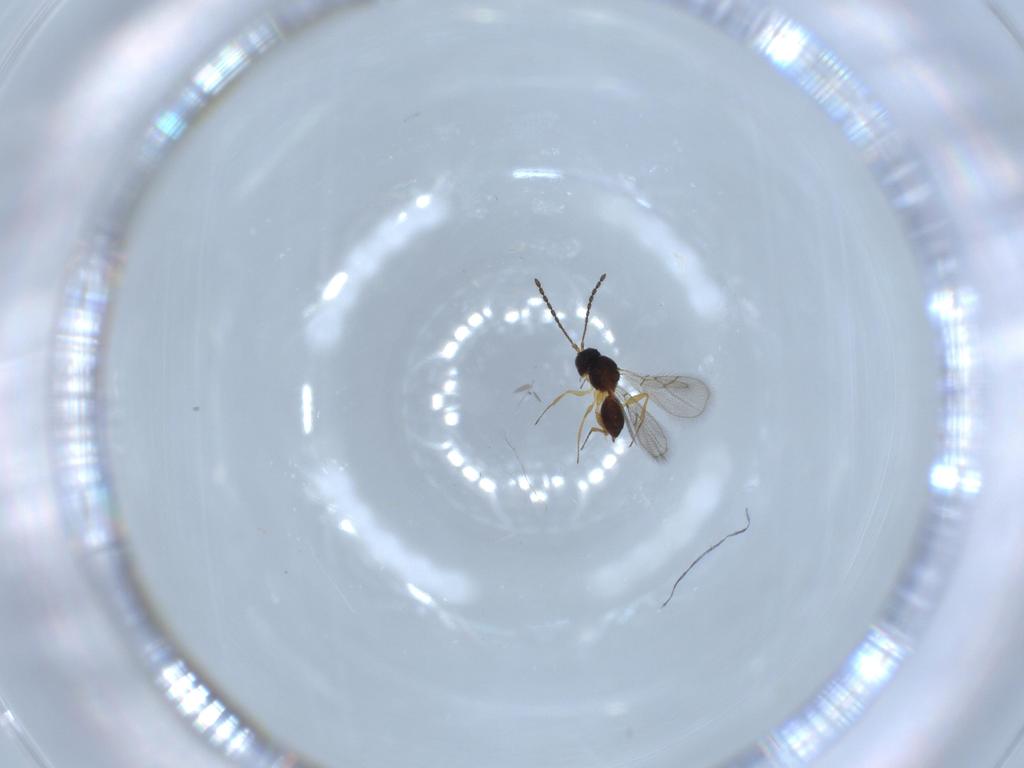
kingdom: Animalia
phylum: Arthropoda
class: Insecta
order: Hymenoptera
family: Figitidae
